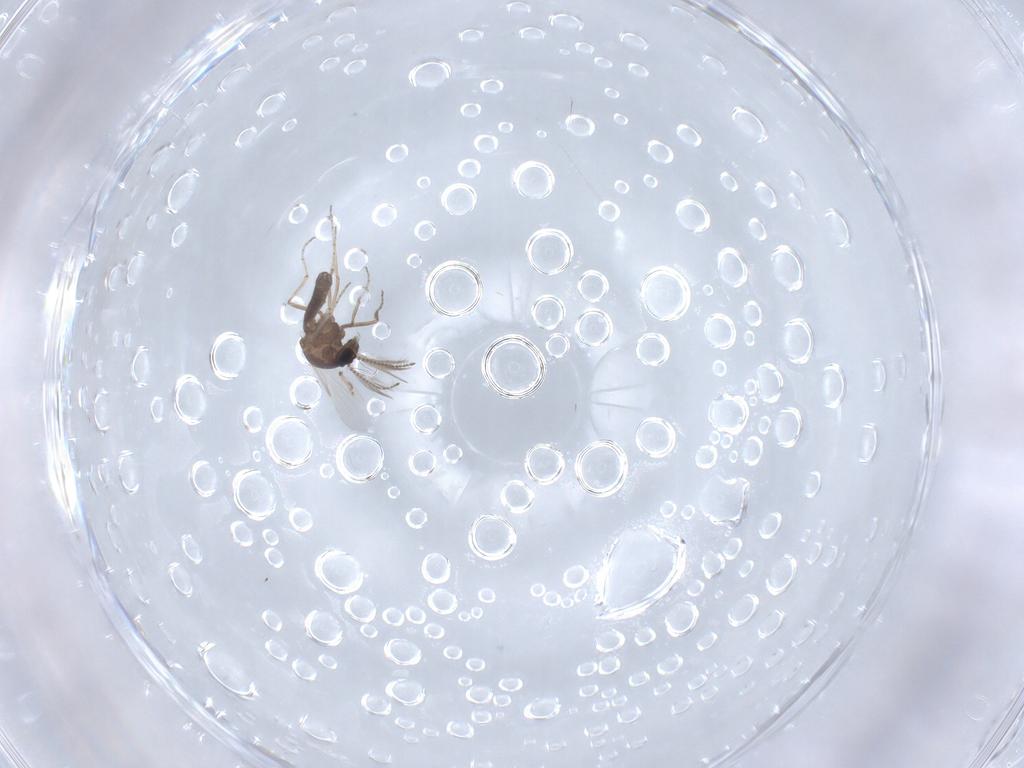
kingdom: Animalia
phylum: Arthropoda
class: Insecta
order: Diptera
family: Ceratopogonidae
